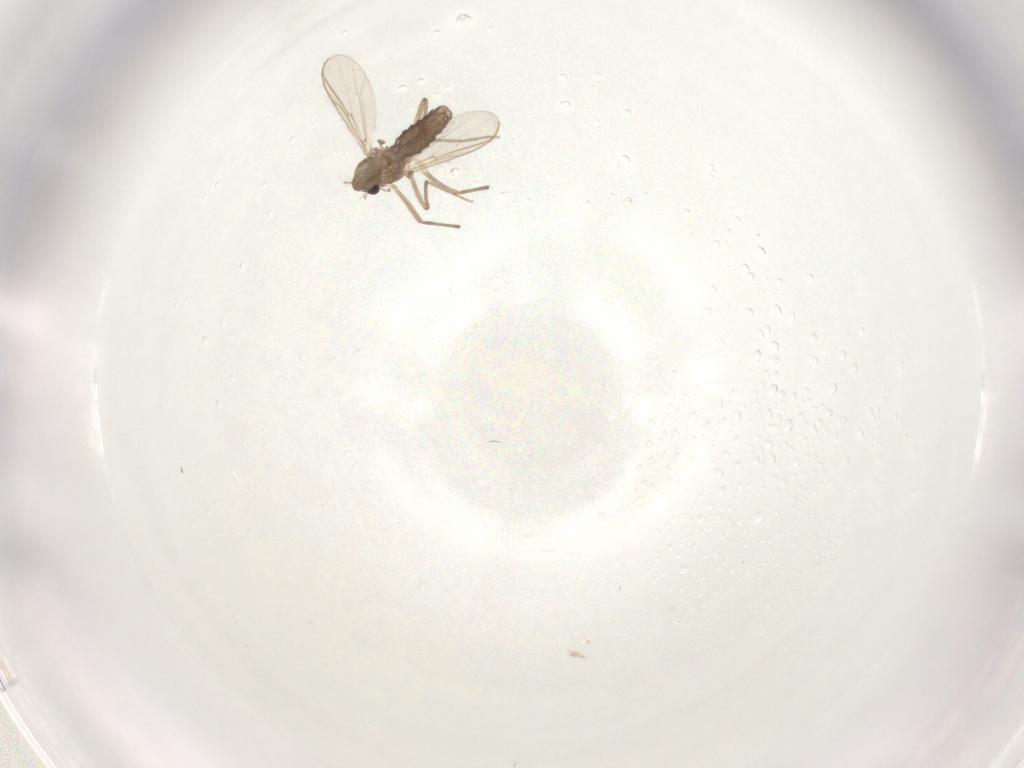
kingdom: Animalia
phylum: Arthropoda
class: Insecta
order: Diptera
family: Chironomidae
